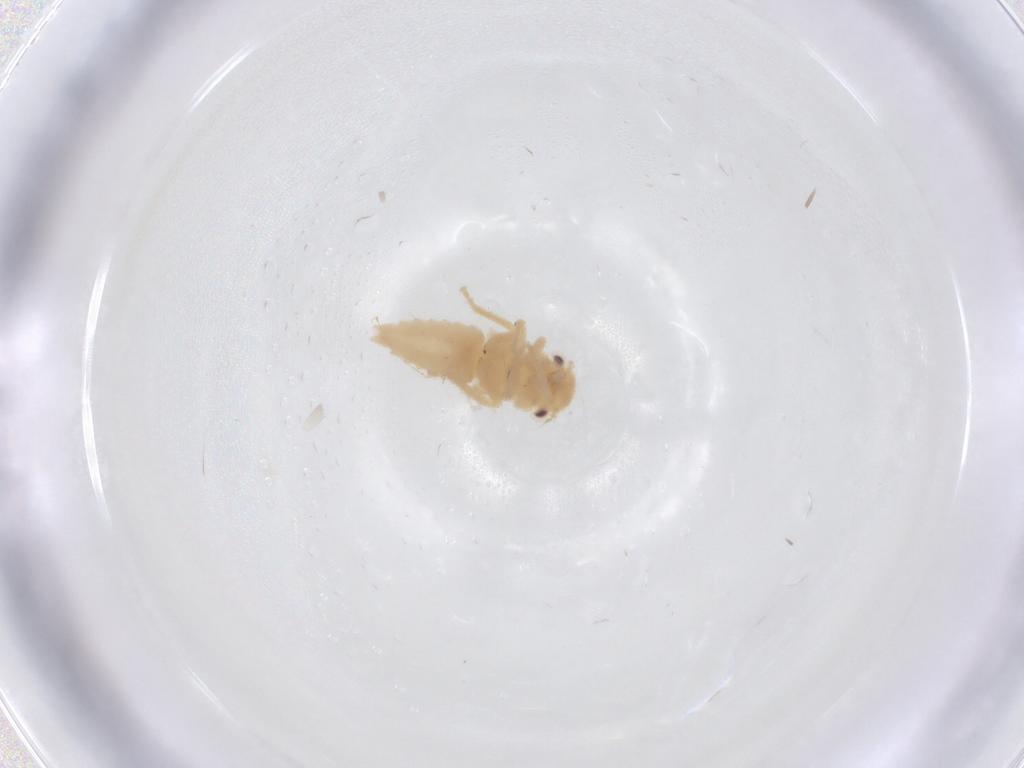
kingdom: Animalia
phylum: Arthropoda
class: Insecta
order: Hemiptera
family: Cicadellidae
